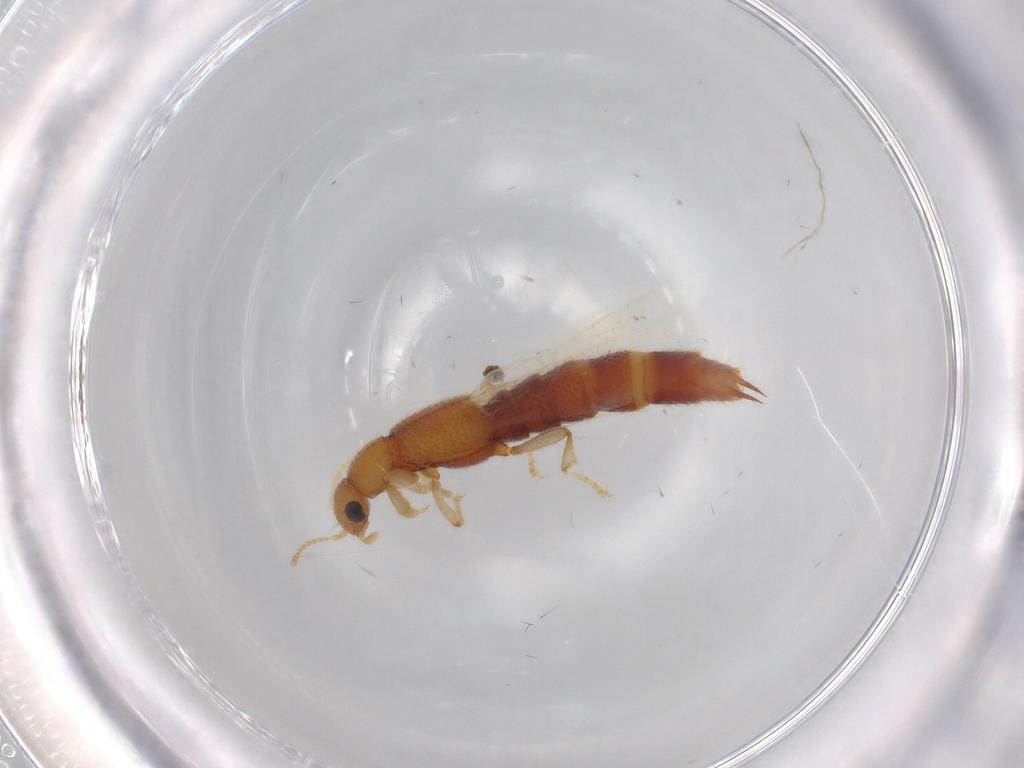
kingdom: Animalia
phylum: Arthropoda
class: Insecta
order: Coleoptera
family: Staphylinidae
